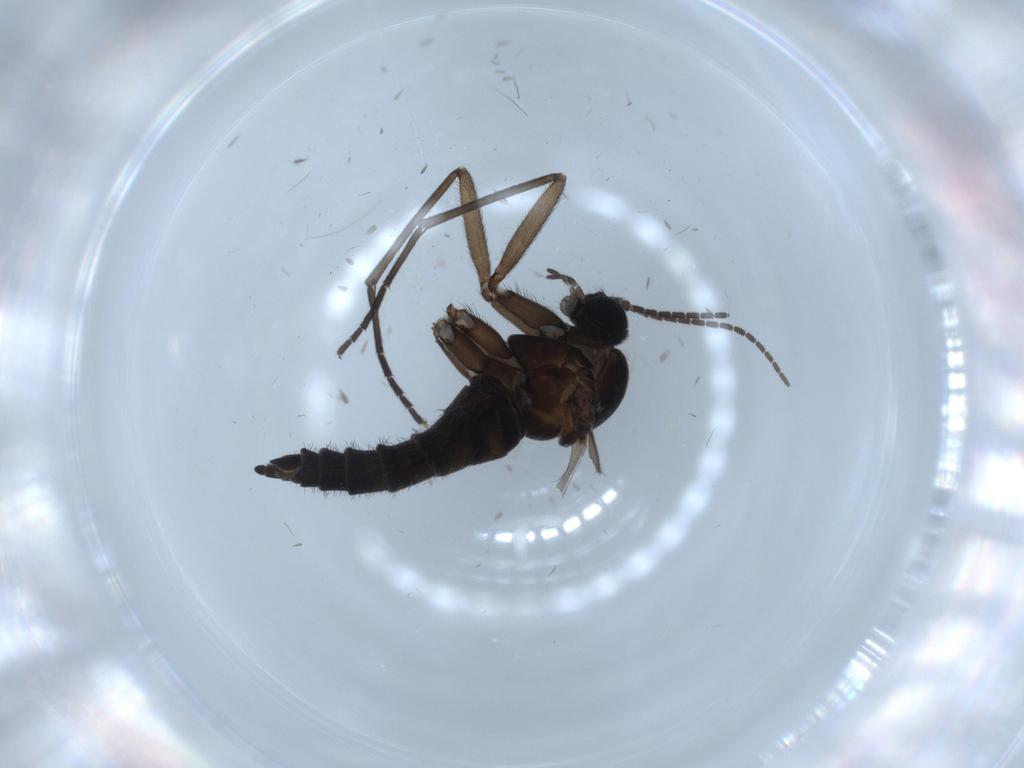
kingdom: Animalia
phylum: Arthropoda
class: Insecta
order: Diptera
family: Sciaridae
